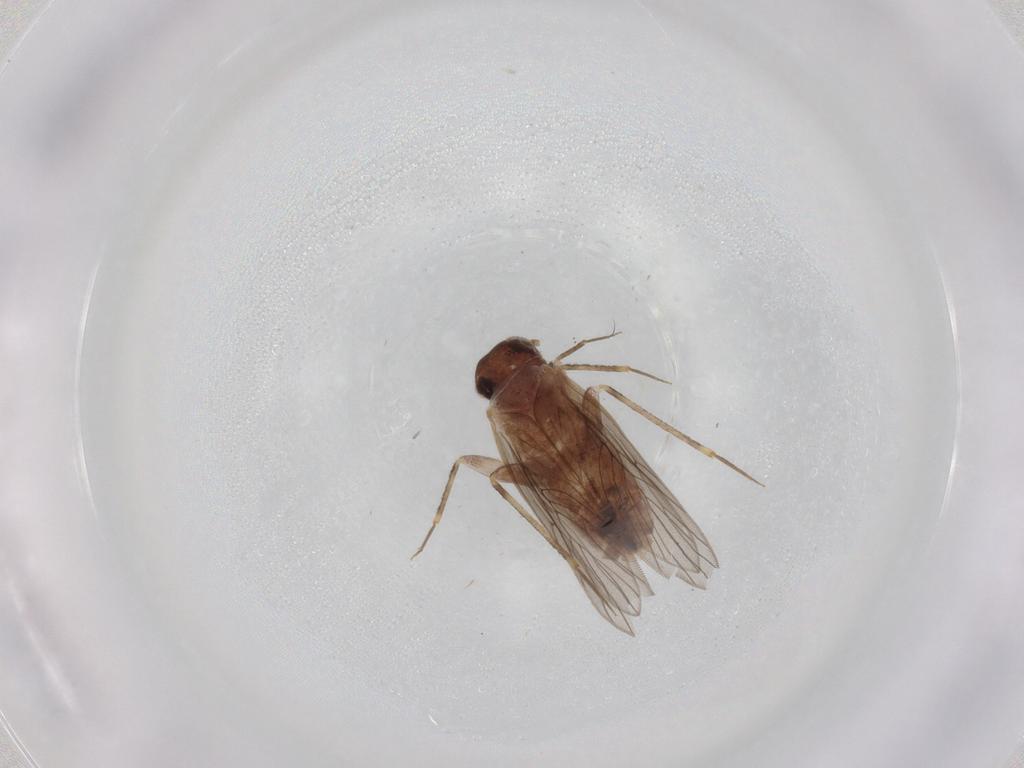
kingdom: Animalia
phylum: Arthropoda
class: Insecta
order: Psocodea
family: Lepidopsocidae
